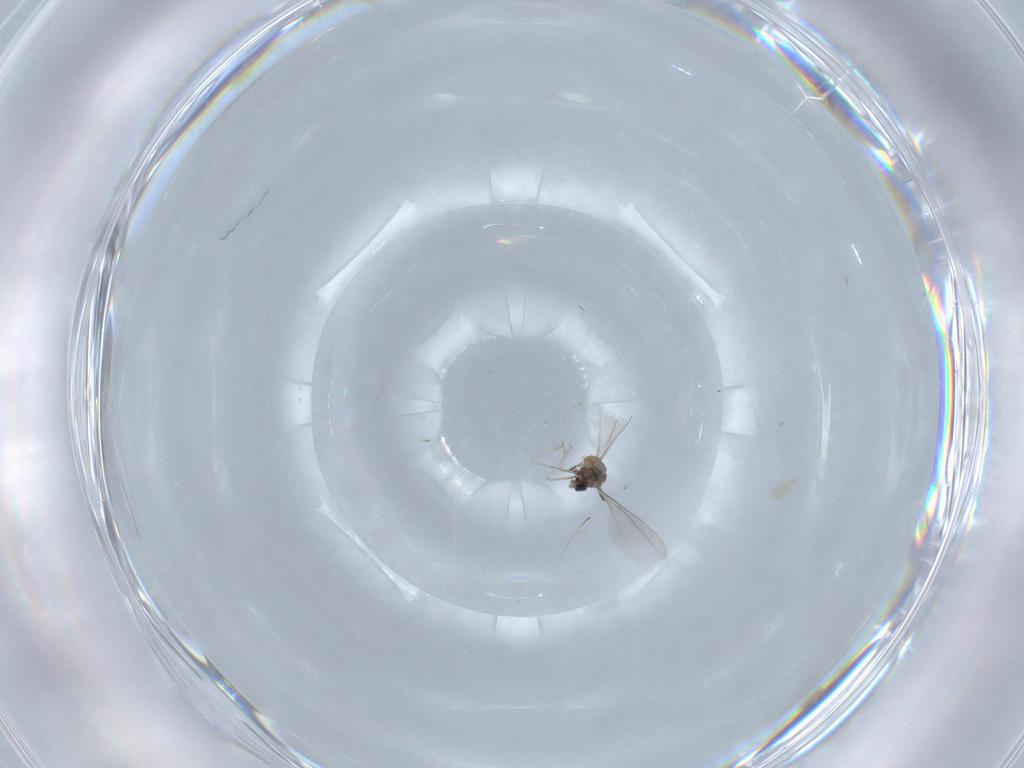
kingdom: Animalia
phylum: Arthropoda
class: Insecta
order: Diptera
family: Cecidomyiidae
